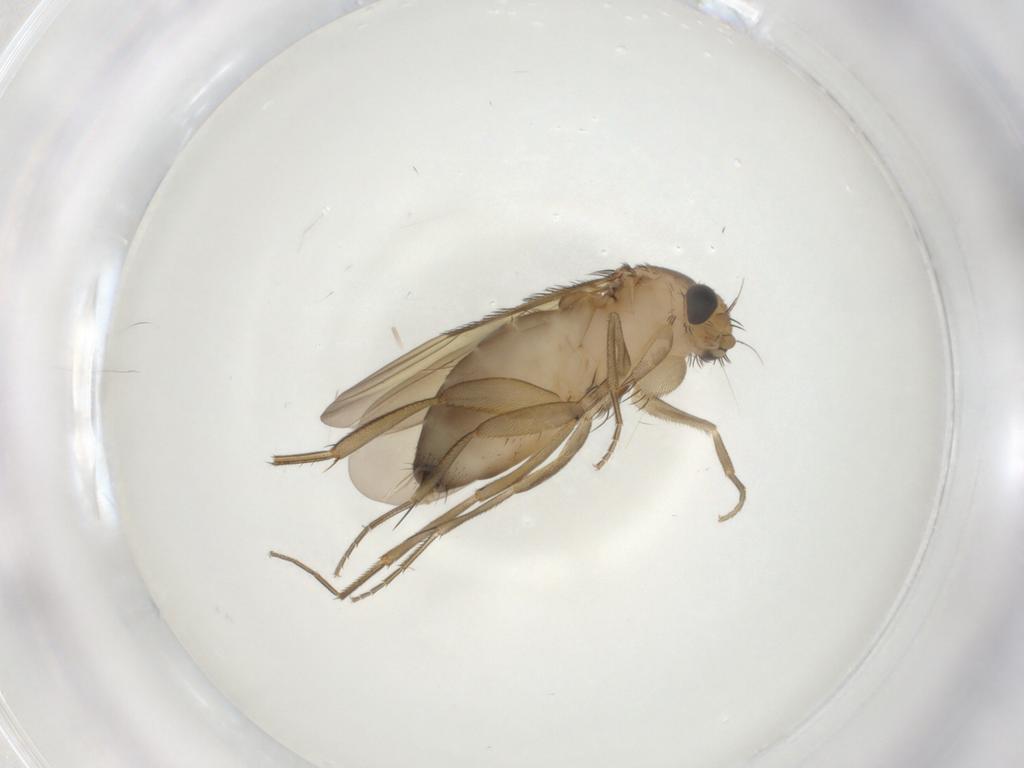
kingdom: Animalia
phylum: Arthropoda
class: Insecta
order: Diptera
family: Phoridae
